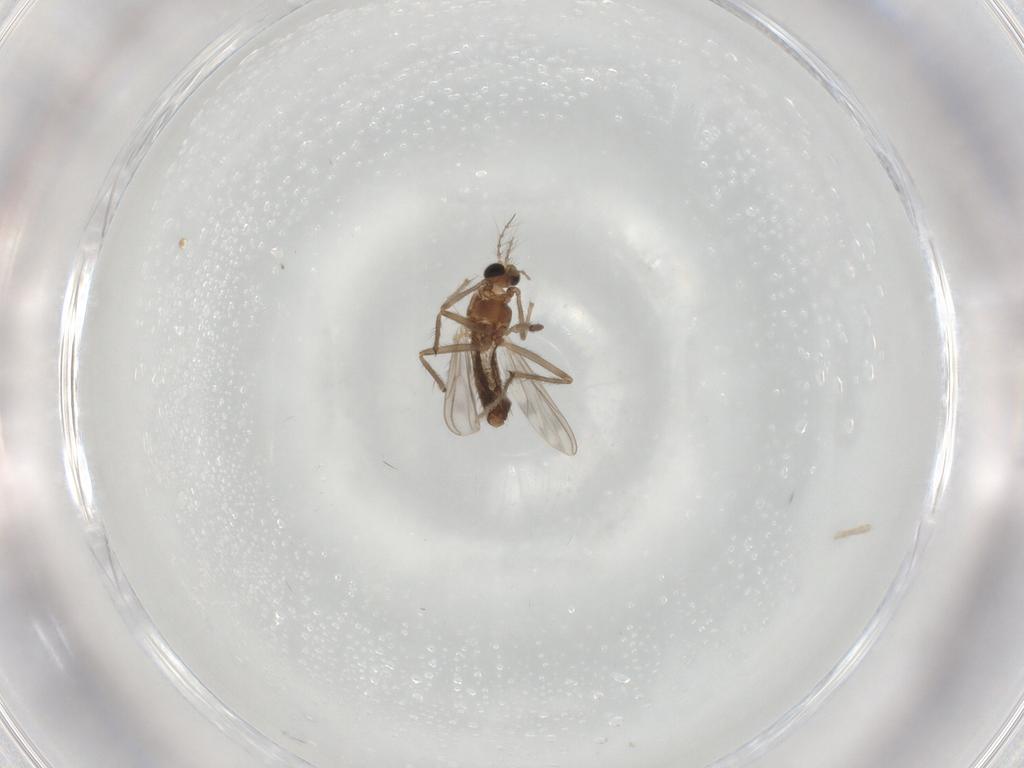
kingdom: Animalia
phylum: Arthropoda
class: Insecta
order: Diptera
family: Chironomidae
